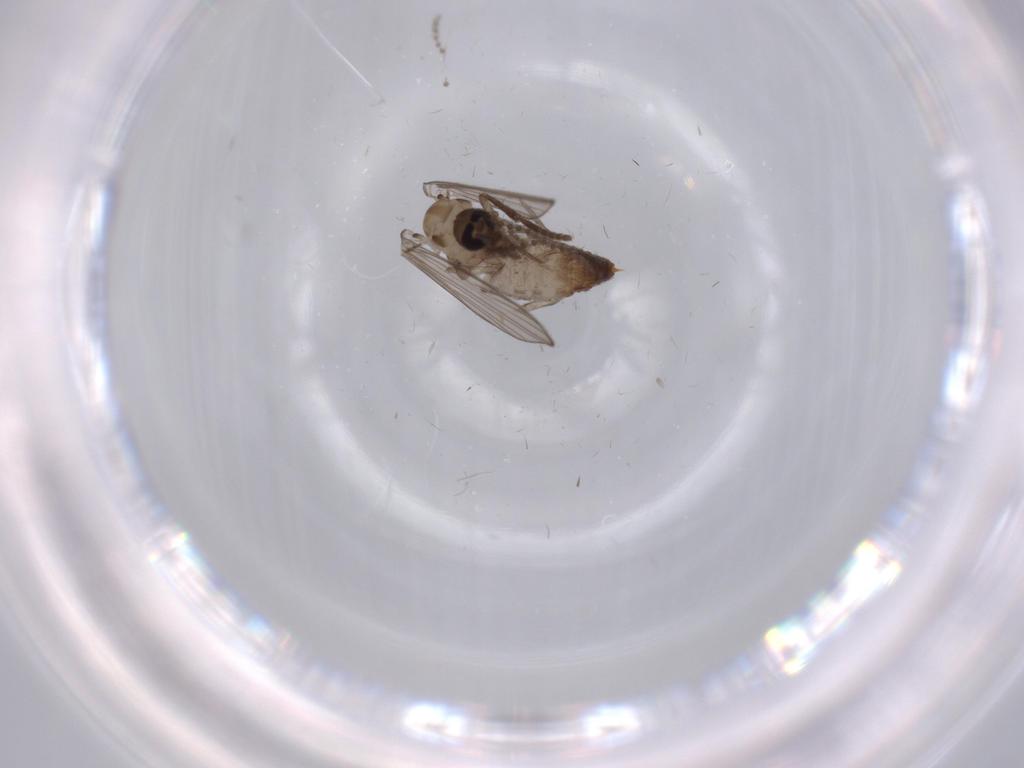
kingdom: Animalia
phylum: Arthropoda
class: Insecta
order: Diptera
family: Psychodidae
